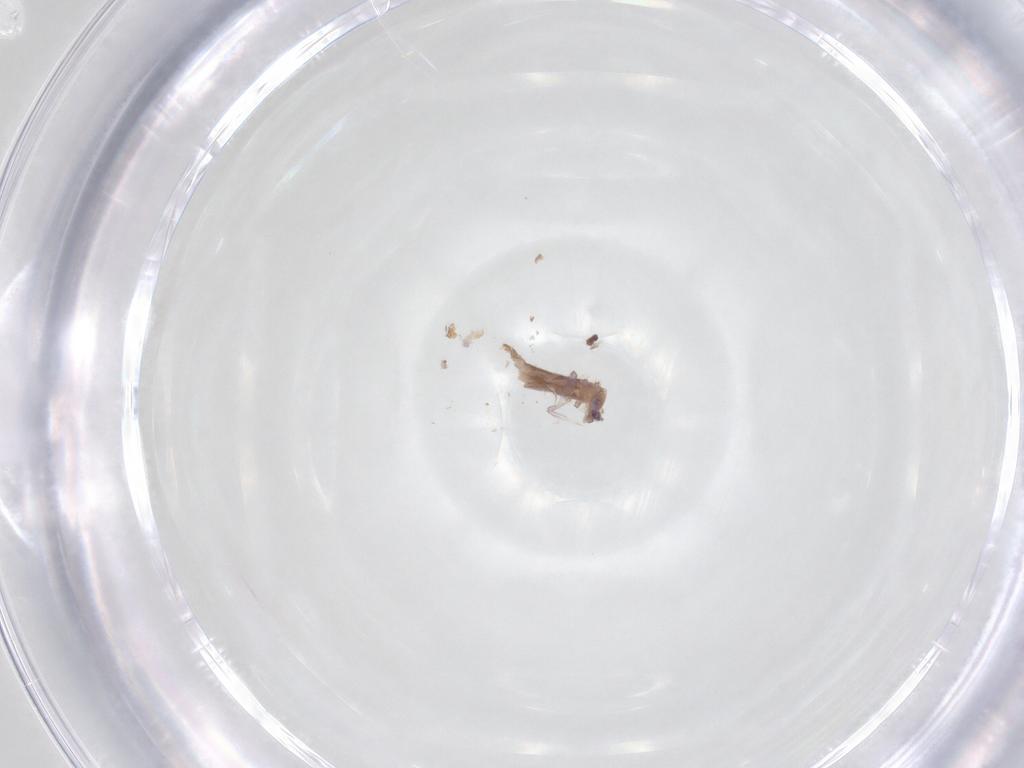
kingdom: Animalia
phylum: Arthropoda
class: Collembola
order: Entomobryomorpha
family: Entomobryidae
